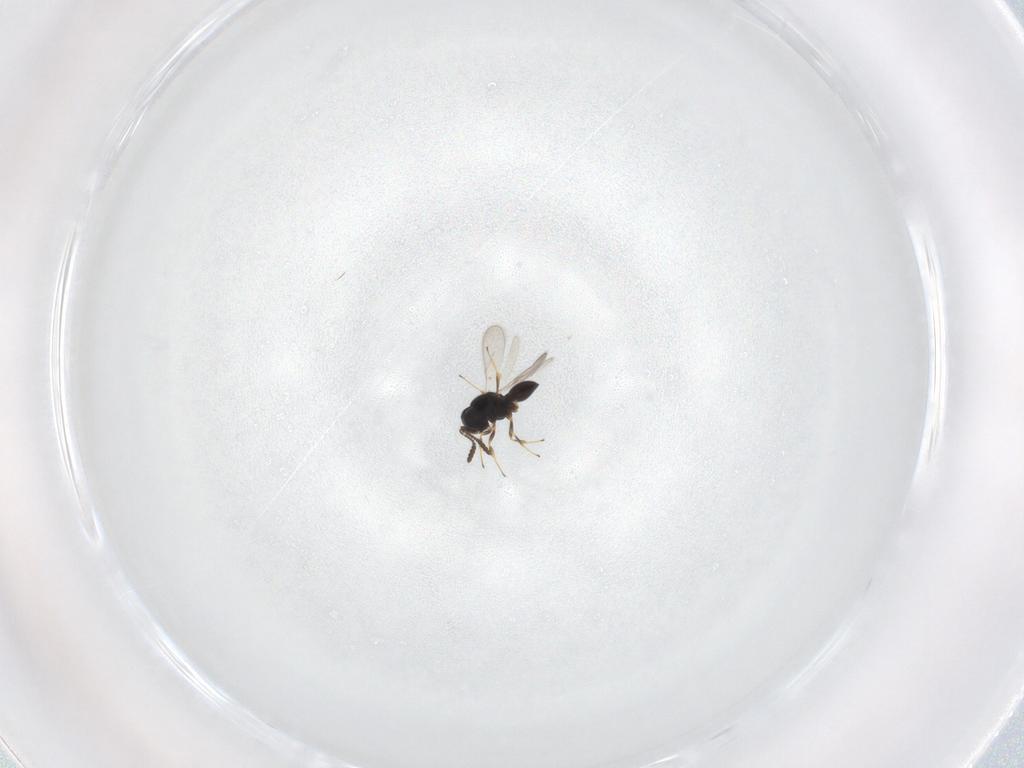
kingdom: Animalia
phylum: Arthropoda
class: Insecta
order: Hymenoptera
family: Scelionidae
